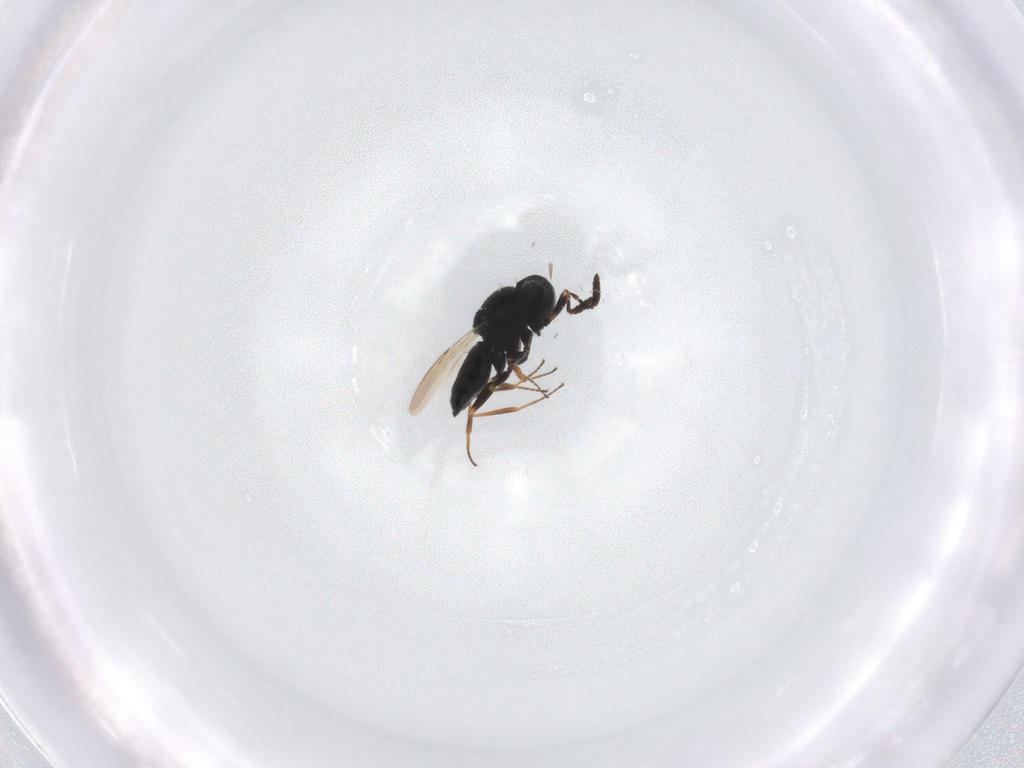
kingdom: Animalia
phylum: Arthropoda
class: Insecta
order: Hymenoptera
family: Scelionidae
